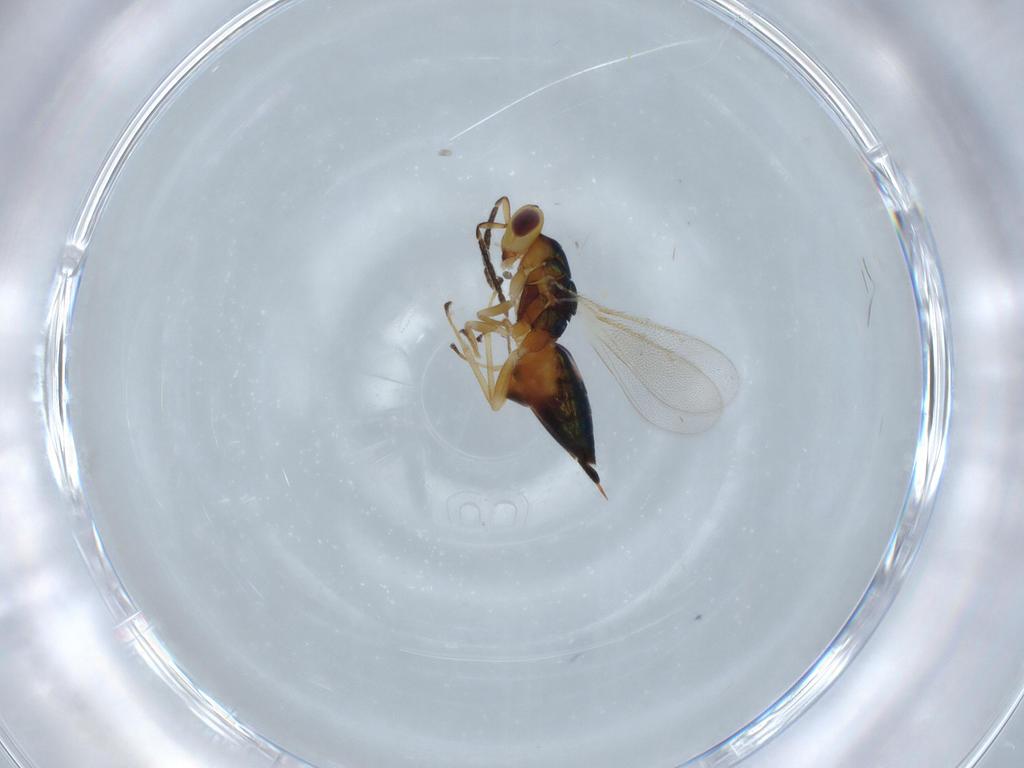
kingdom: Animalia
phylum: Arthropoda
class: Insecta
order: Hymenoptera
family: Eulophidae
